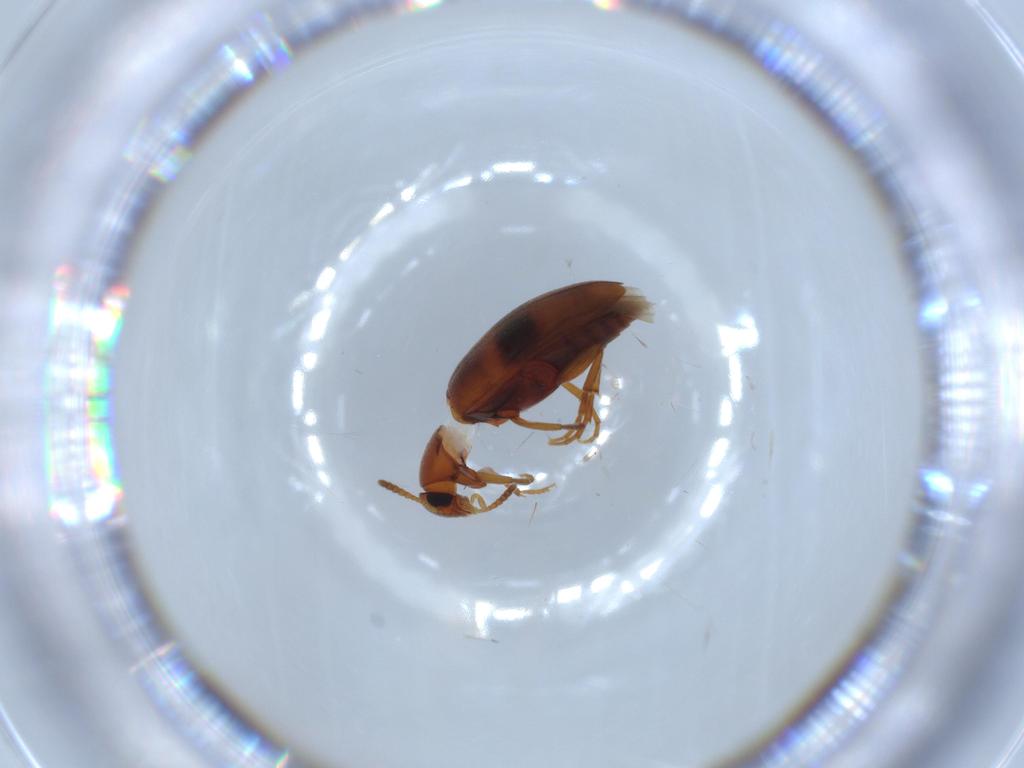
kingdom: Animalia
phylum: Arthropoda
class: Insecta
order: Coleoptera
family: Scraptiidae
